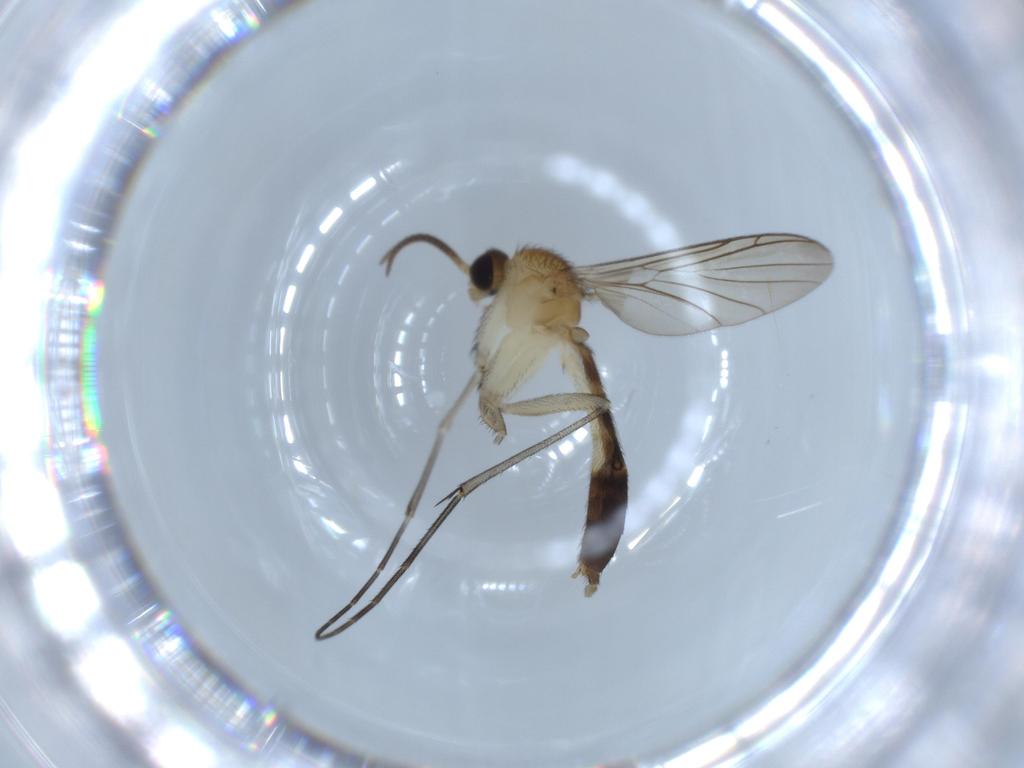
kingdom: Animalia
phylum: Arthropoda
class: Insecta
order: Diptera
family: Keroplatidae
